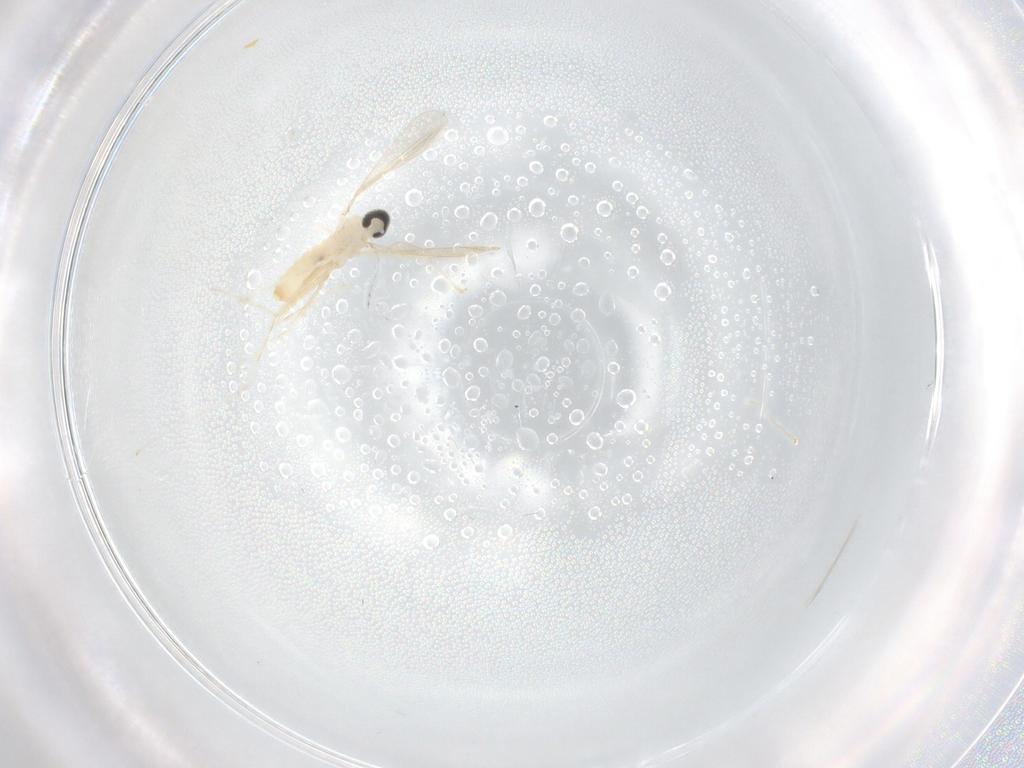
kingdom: Animalia
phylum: Arthropoda
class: Insecta
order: Diptera
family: Cecidomyiidae
